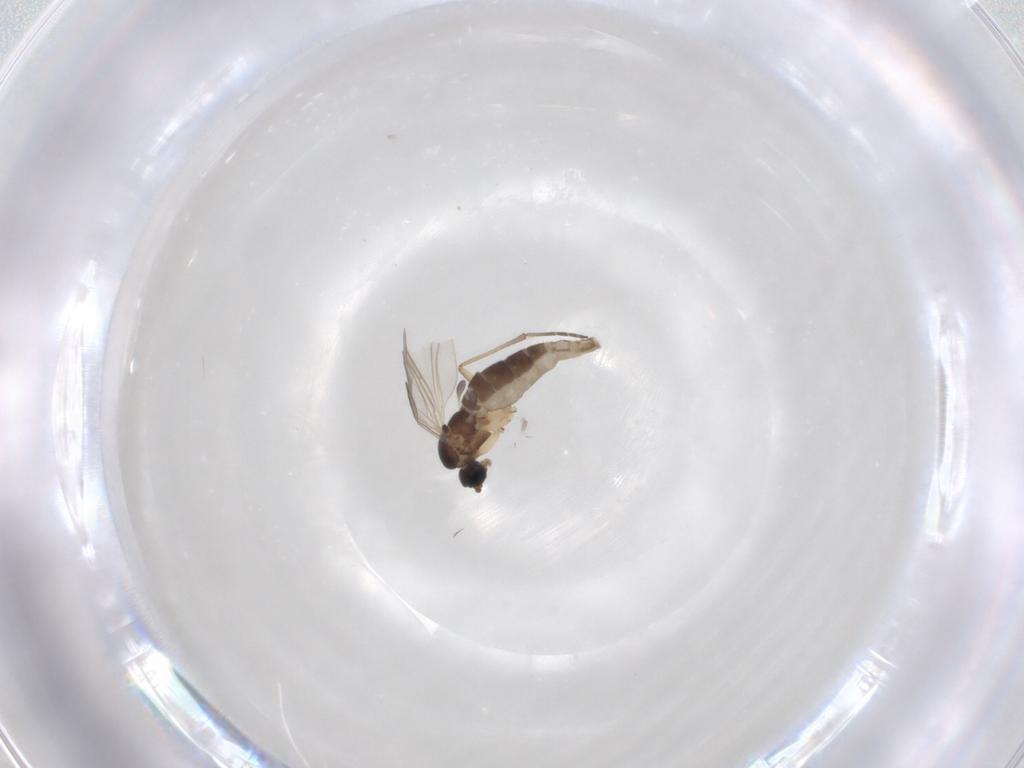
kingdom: Animalia
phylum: Arthropoda
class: Insecta
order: Diptera
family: Sciaridae
